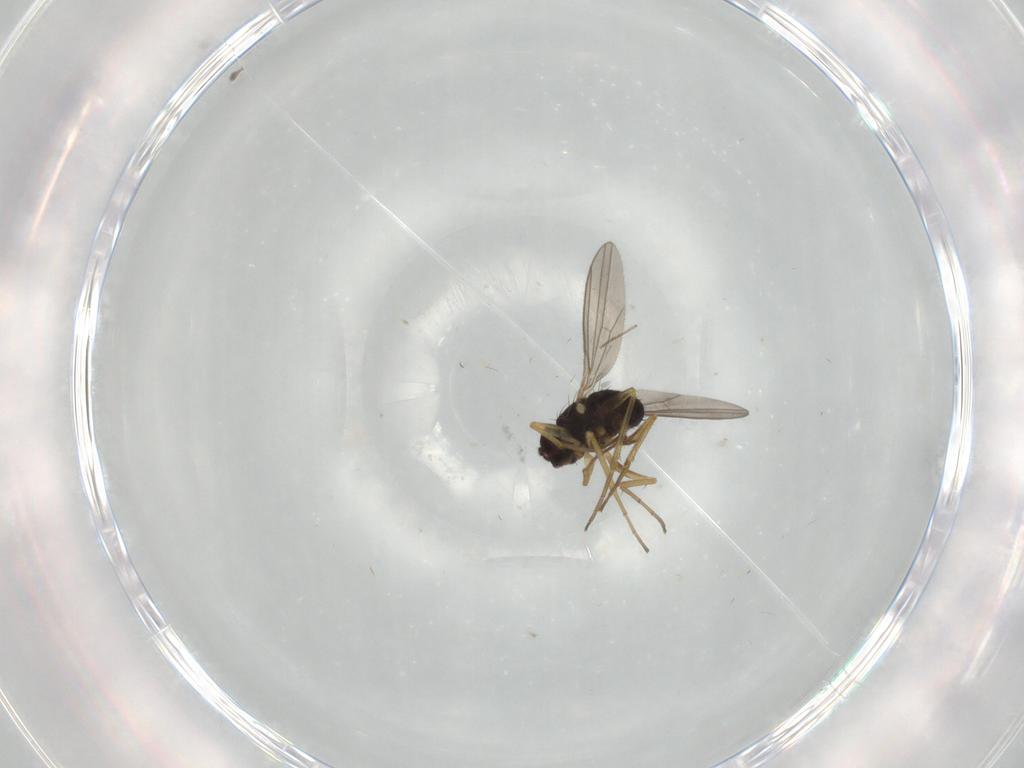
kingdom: Animalia
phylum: Arthropoda
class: Insecta
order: Diptera
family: Dolichopodidae
